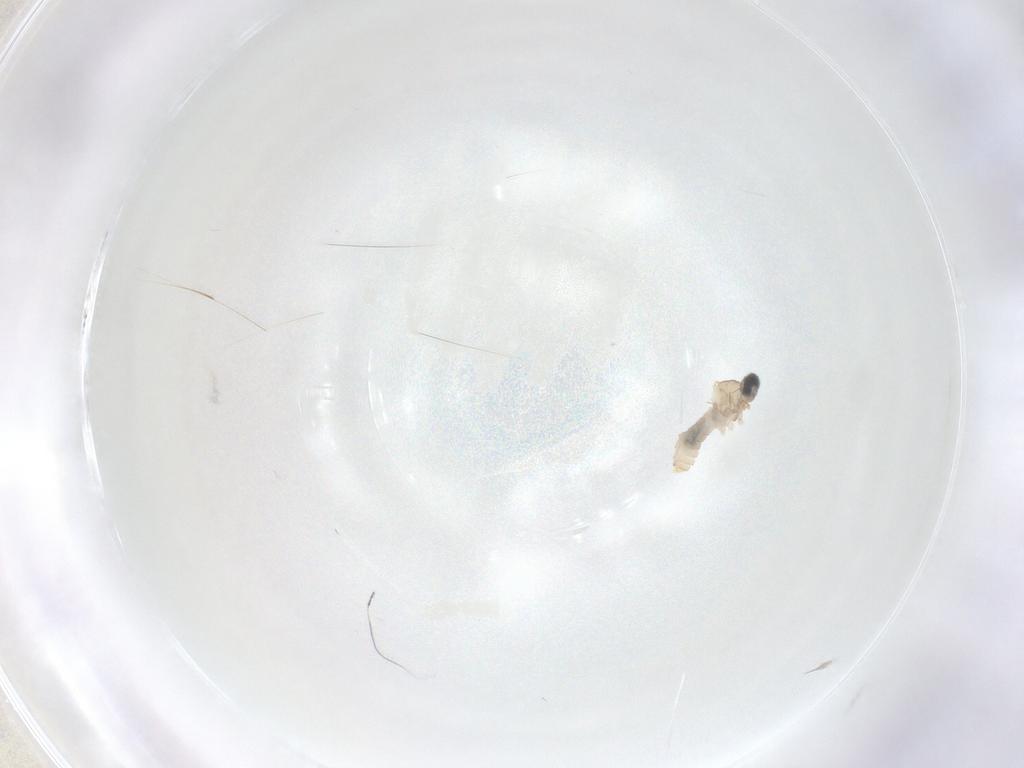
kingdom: Animalia
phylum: Arthropoda
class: Insecta
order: Diptera
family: Cecidomyiidae
